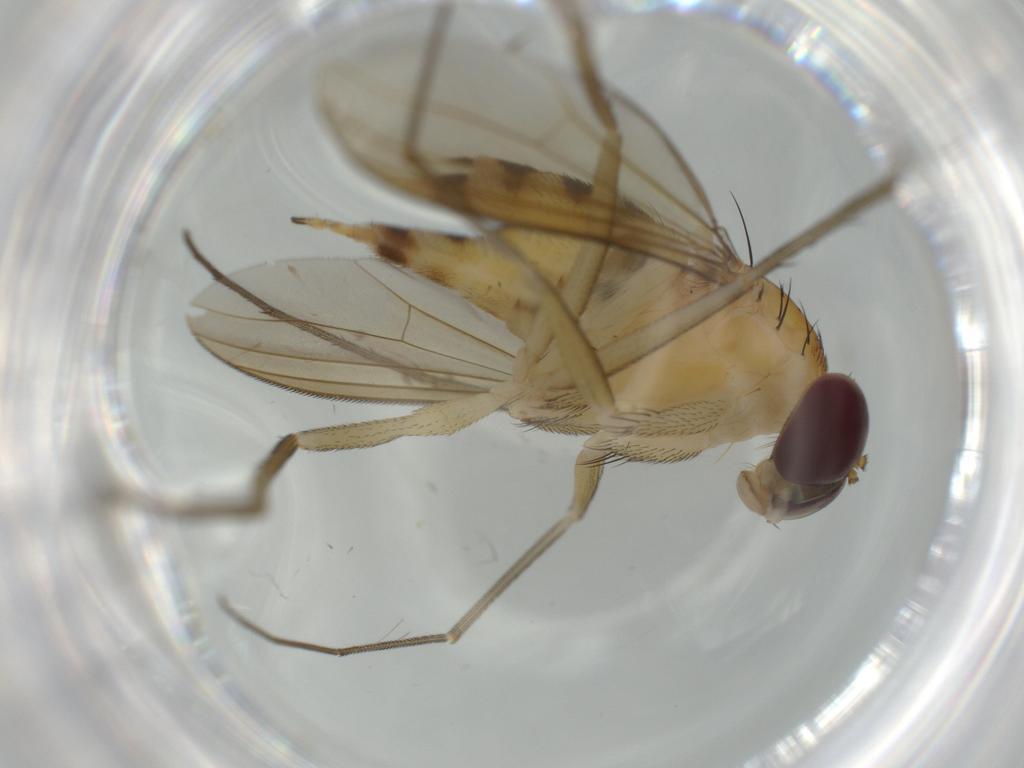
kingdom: Animalia
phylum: Arthropoda
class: Insecta
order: Diptera
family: Dolichopodidae
